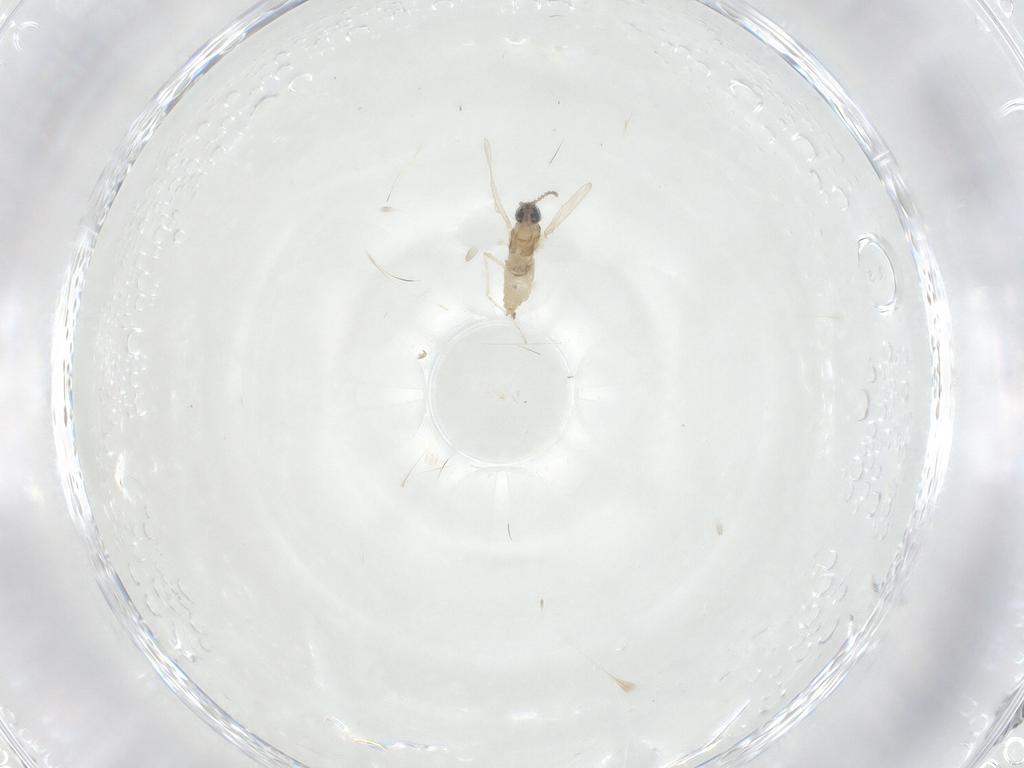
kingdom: Animalia
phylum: Arthropoda
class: Insecta
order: Diptera
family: Cecidomyiidae
